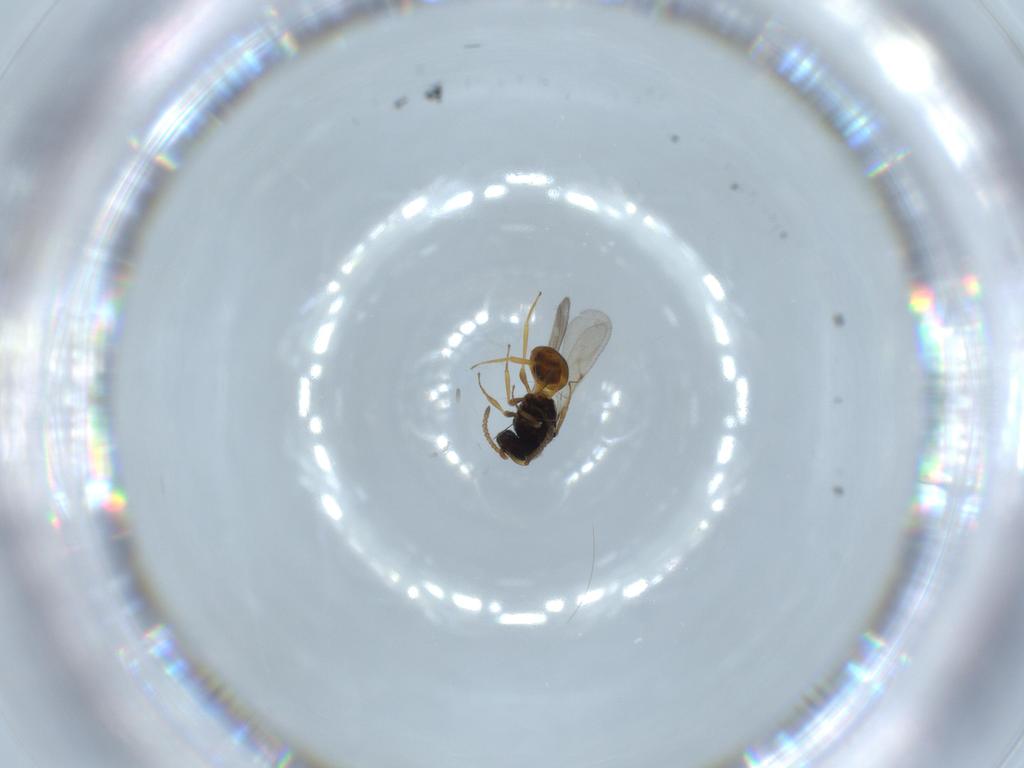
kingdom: Animalia
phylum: Arthropoda
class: Insecta
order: Hymenoptera
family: Scelionidae
